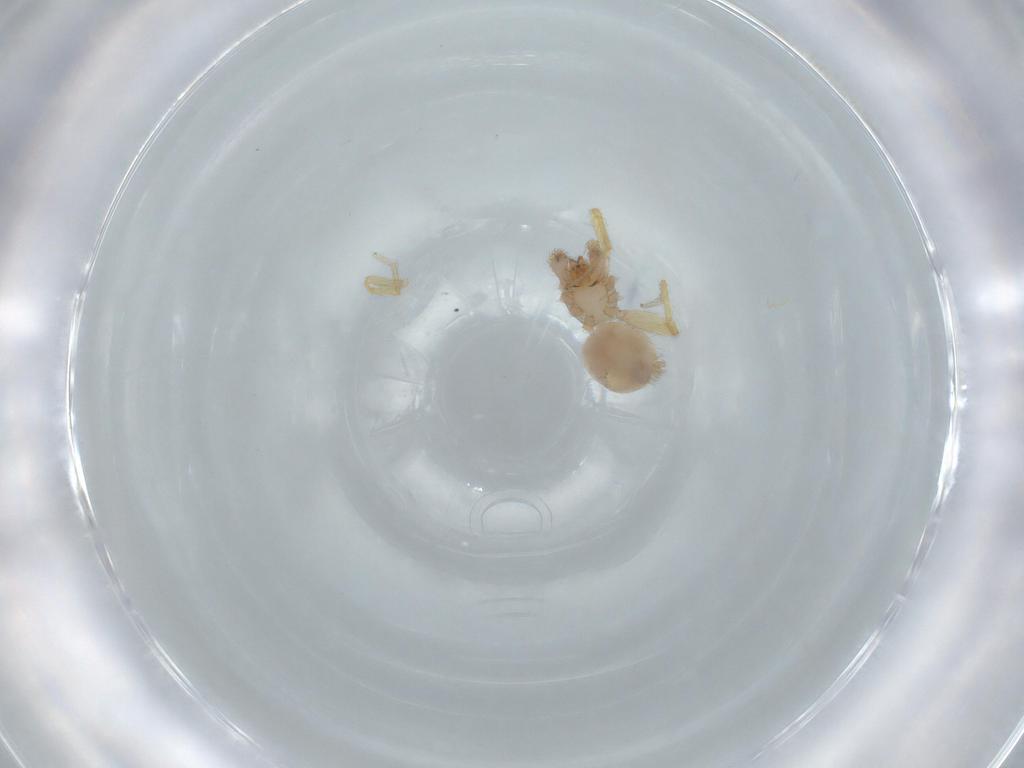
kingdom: Animalia
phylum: Arthropoda
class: Arachnida
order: Araneae
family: Oonopidae
